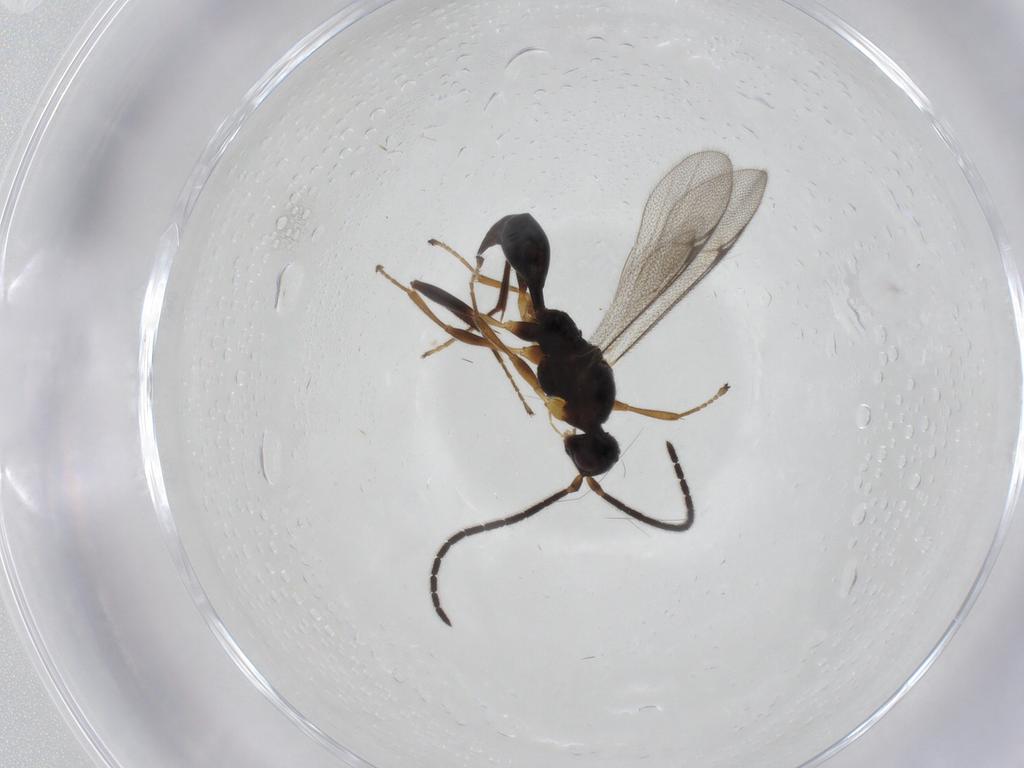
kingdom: Animalia
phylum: Arthropoda
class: Insecta
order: Hymenoptera
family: Proctotrupidae
